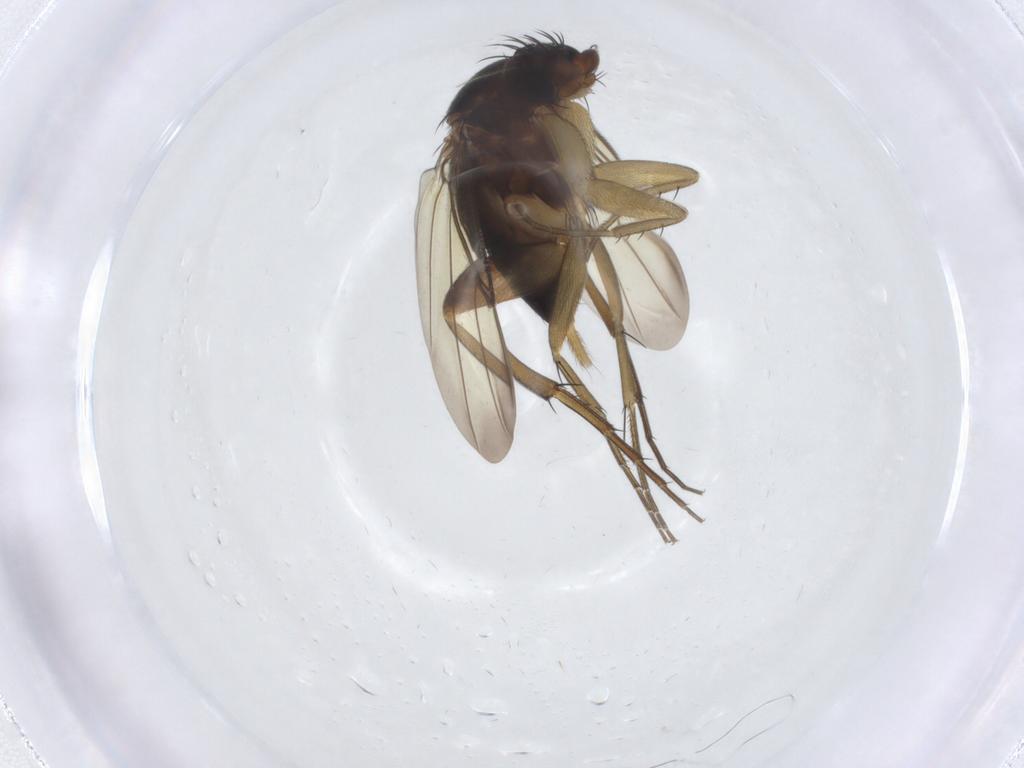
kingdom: Animalia
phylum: Arthropoda
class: Insecta
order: Diptera
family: Phoridae
